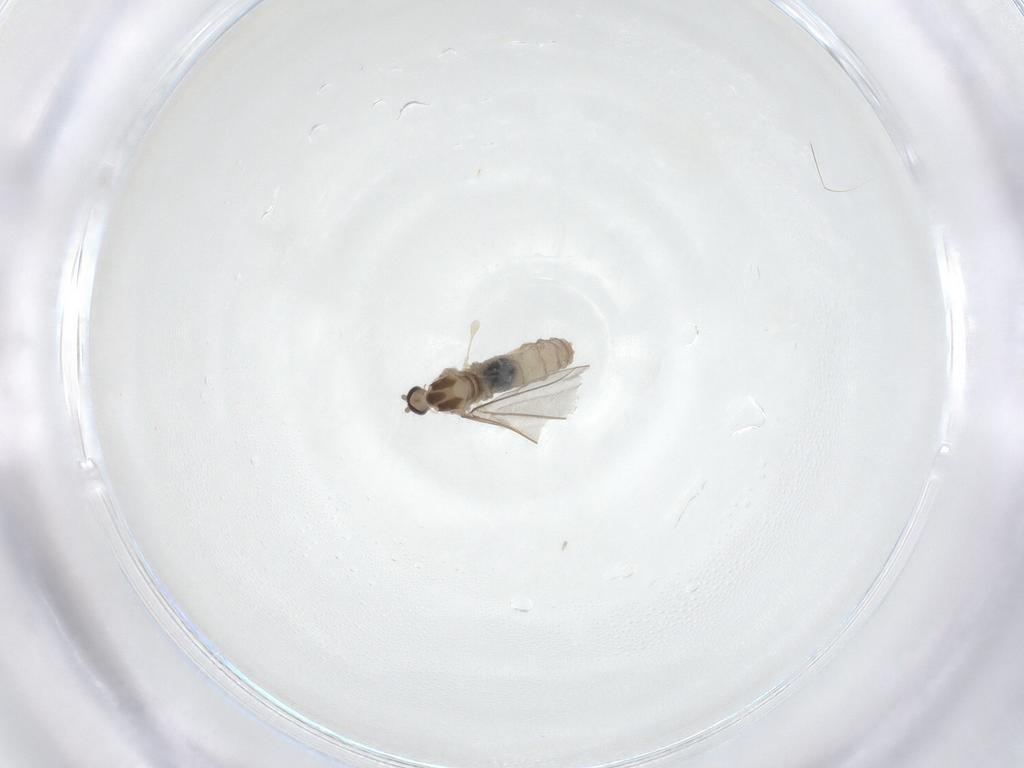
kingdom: Animalia
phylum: Arthropoda
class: Insecta
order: Diptera
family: Cecidomyiidae
